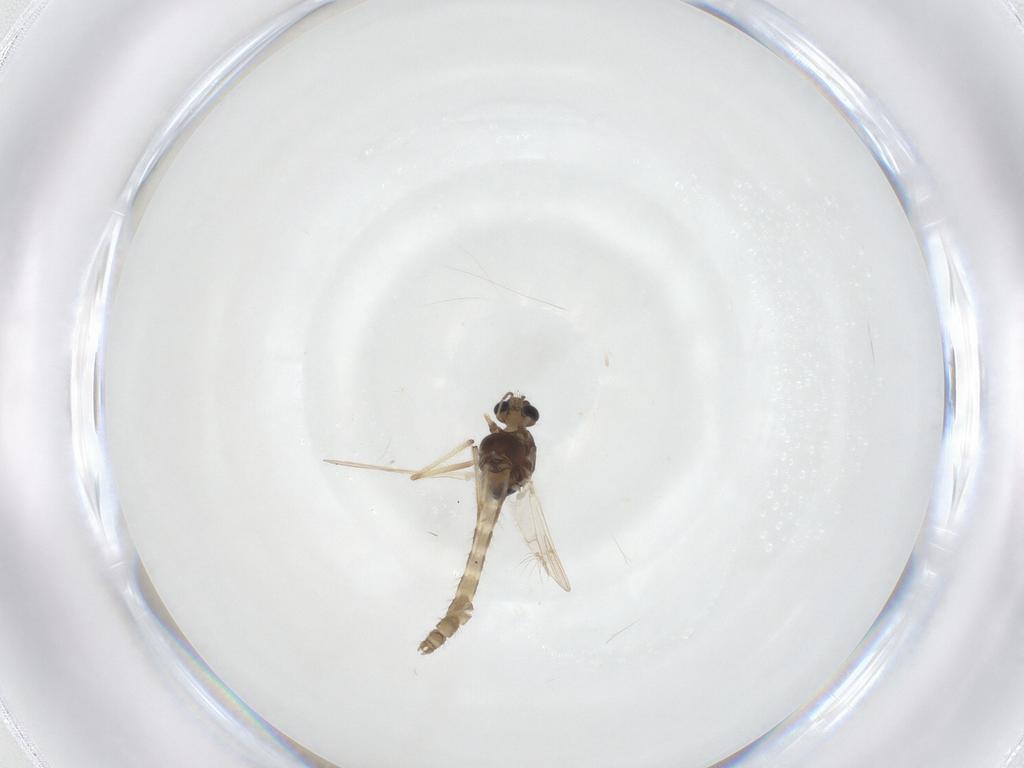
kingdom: Animalia
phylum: Arthropoda
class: Insecta
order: Diptera
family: Chironomidae
